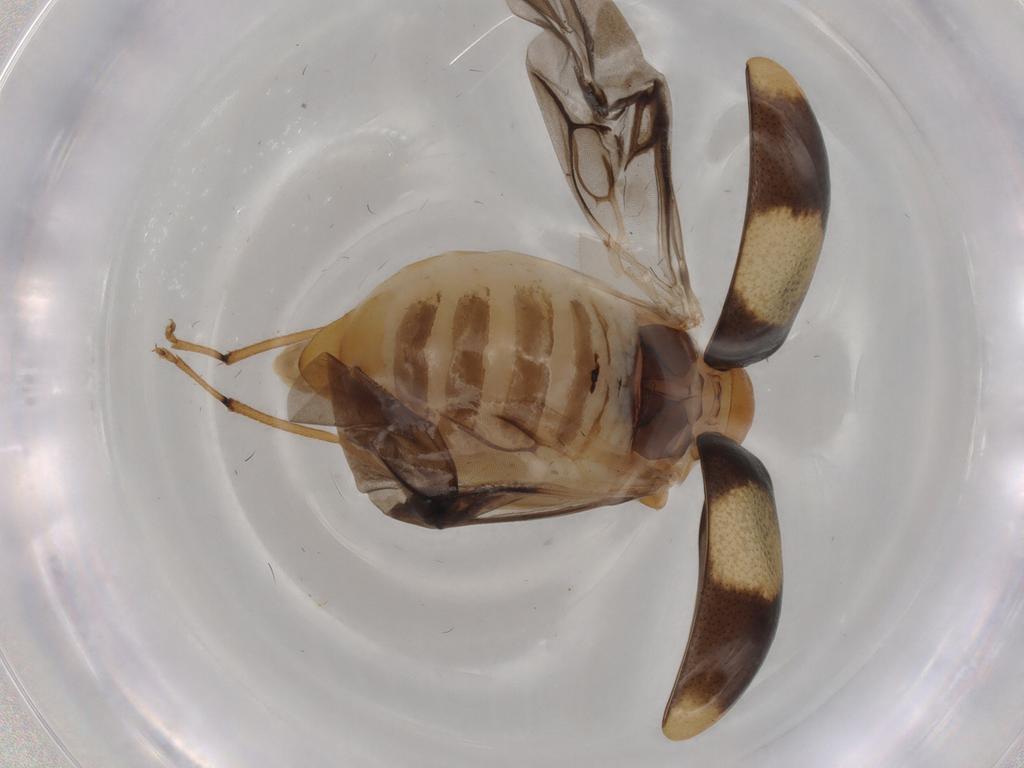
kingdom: Animalia
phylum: Arthropoda
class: Insecta
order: Coleoptera
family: Chrysomelidae
